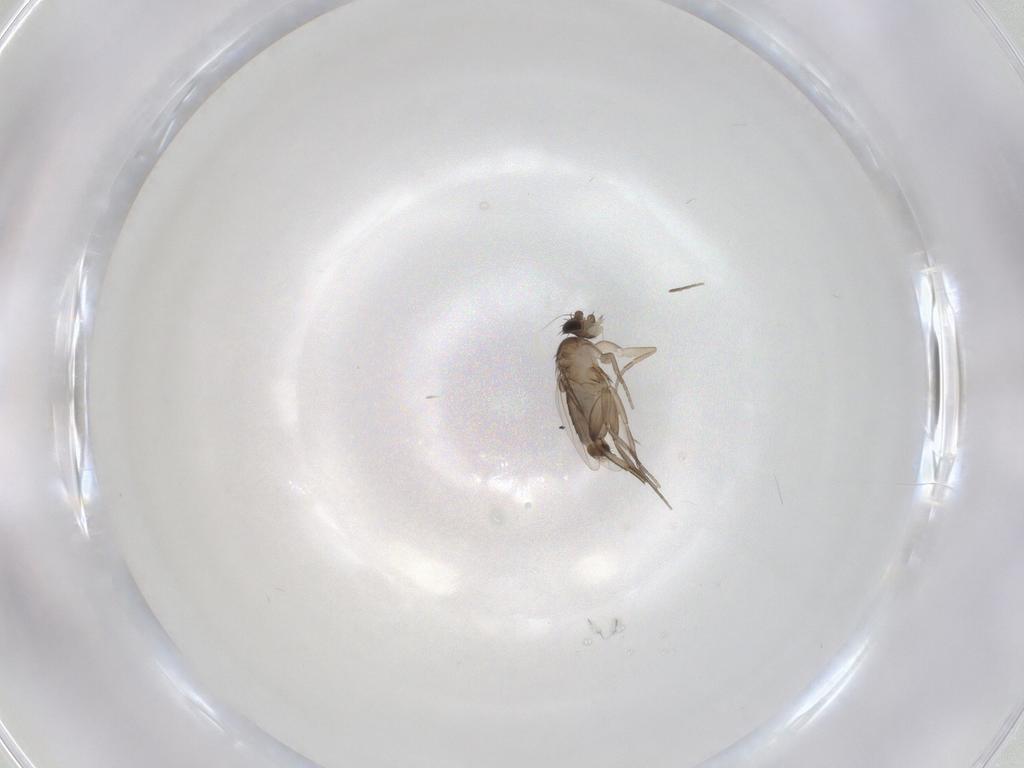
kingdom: Animalia
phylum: Arthropoda
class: Insecta
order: Diptera
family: Phoridae
